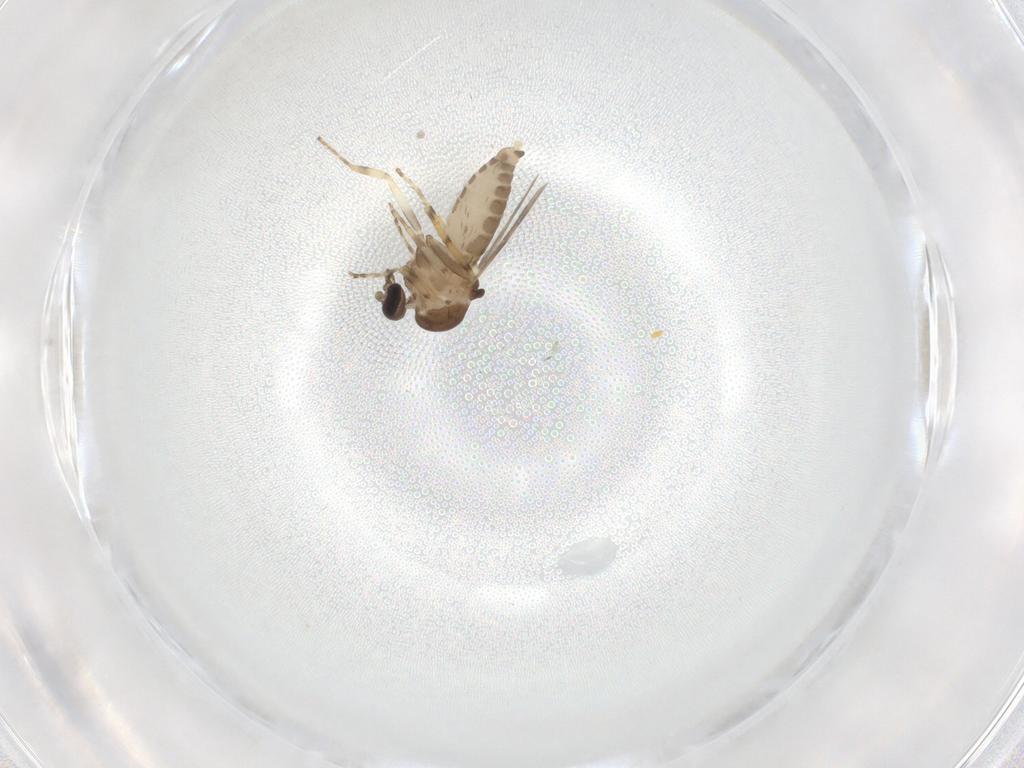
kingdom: Animalia
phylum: Arthropoda
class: Insecta
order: Diptera
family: Ceratopogonidae
